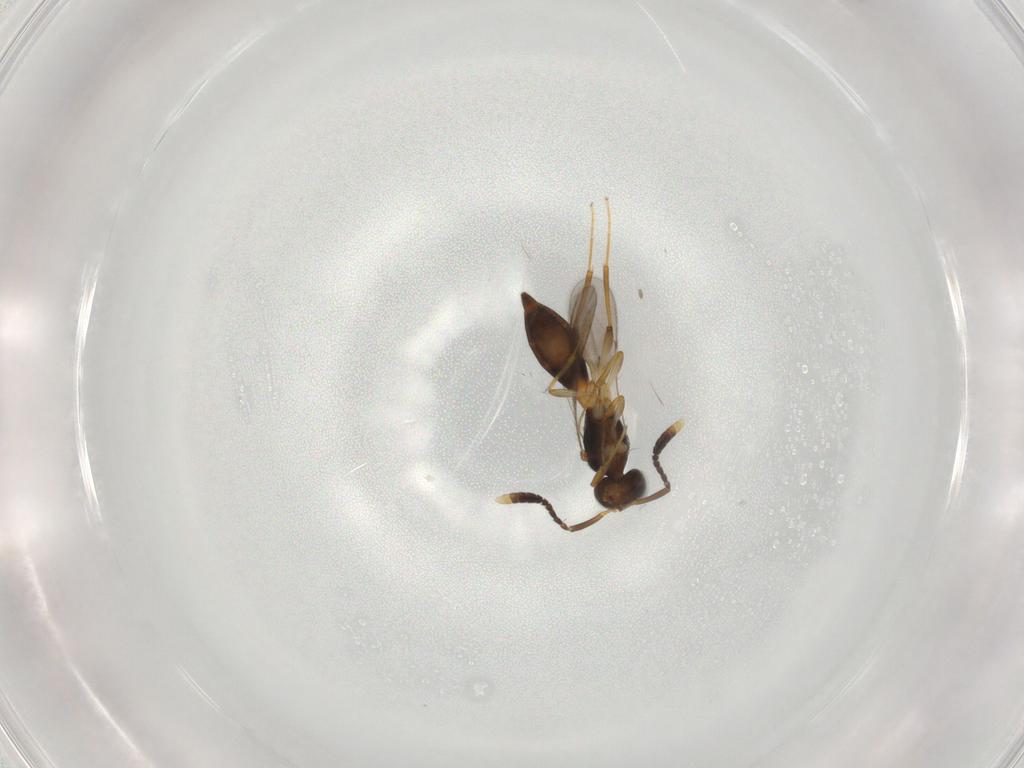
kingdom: Animalia
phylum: Arthropoda
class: Insecta
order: Hymenoptera
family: Scelionidae
